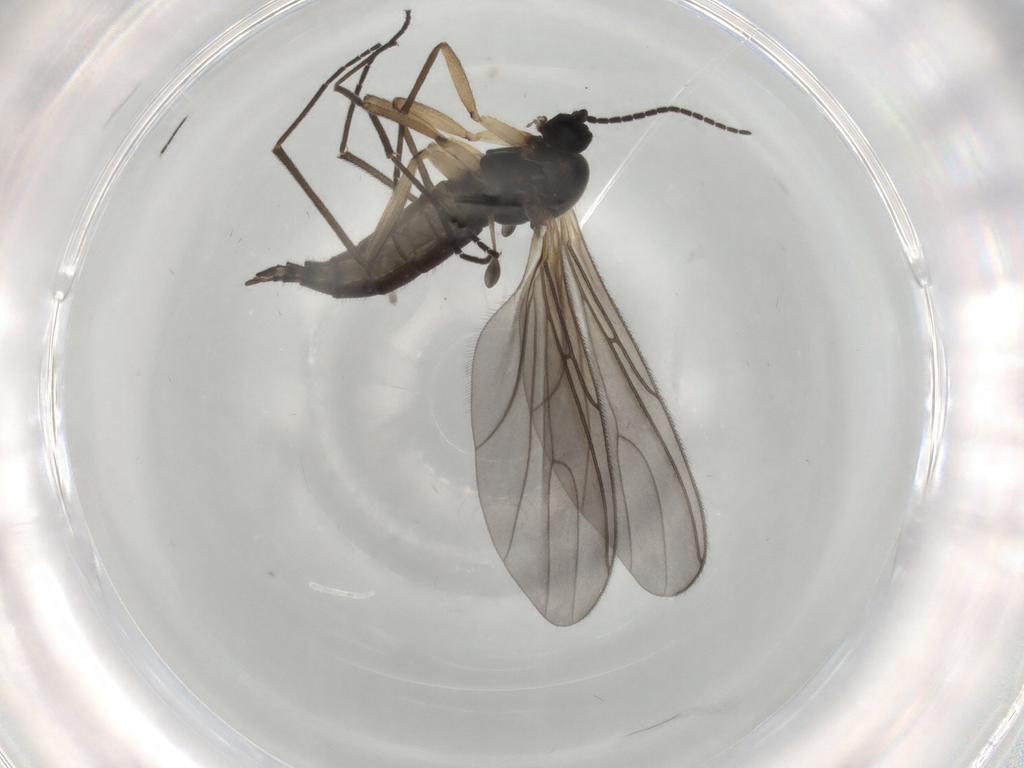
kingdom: Animalia
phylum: Arthropoda
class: Insecta
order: Diptera
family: Sciaridae
